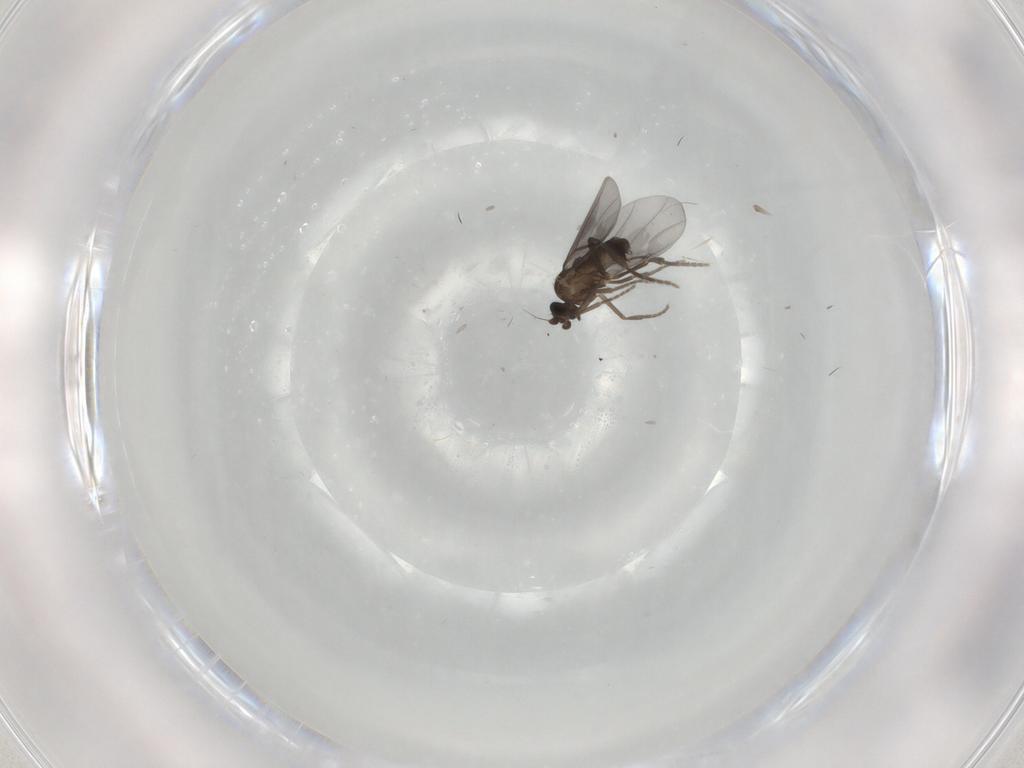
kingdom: Animalia
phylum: Arthropoda
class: Insecta
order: Diptera
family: Phoridae
